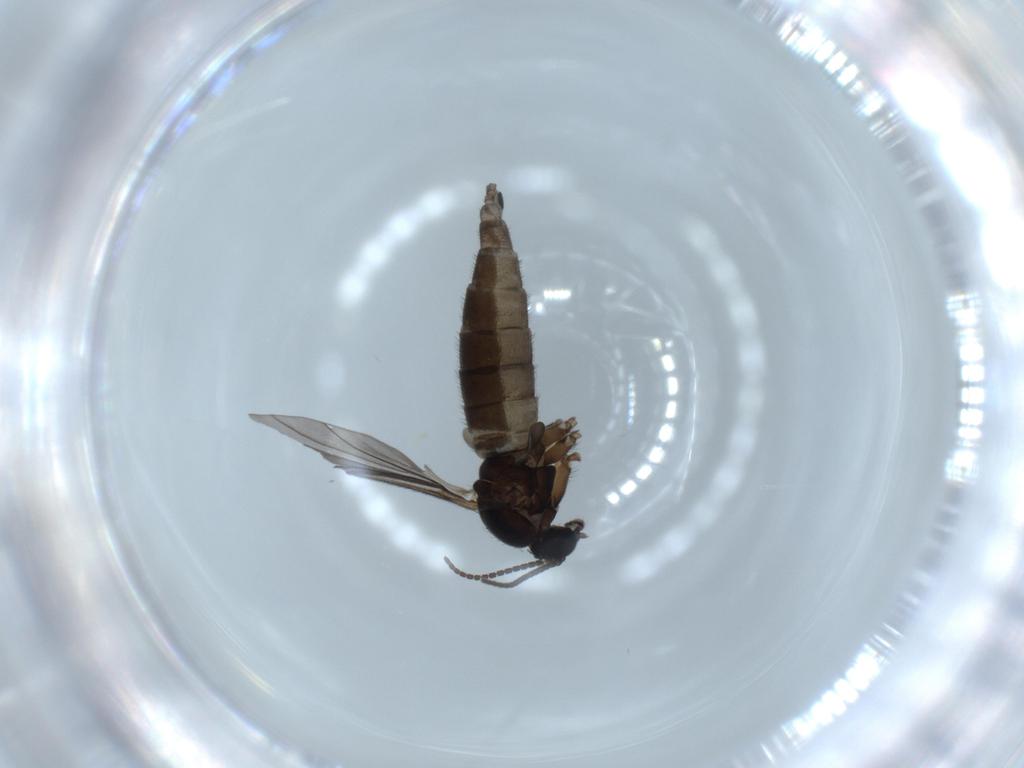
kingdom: Animalia
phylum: Arthropoda
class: Insecta
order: Diptera
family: Sciaridae
